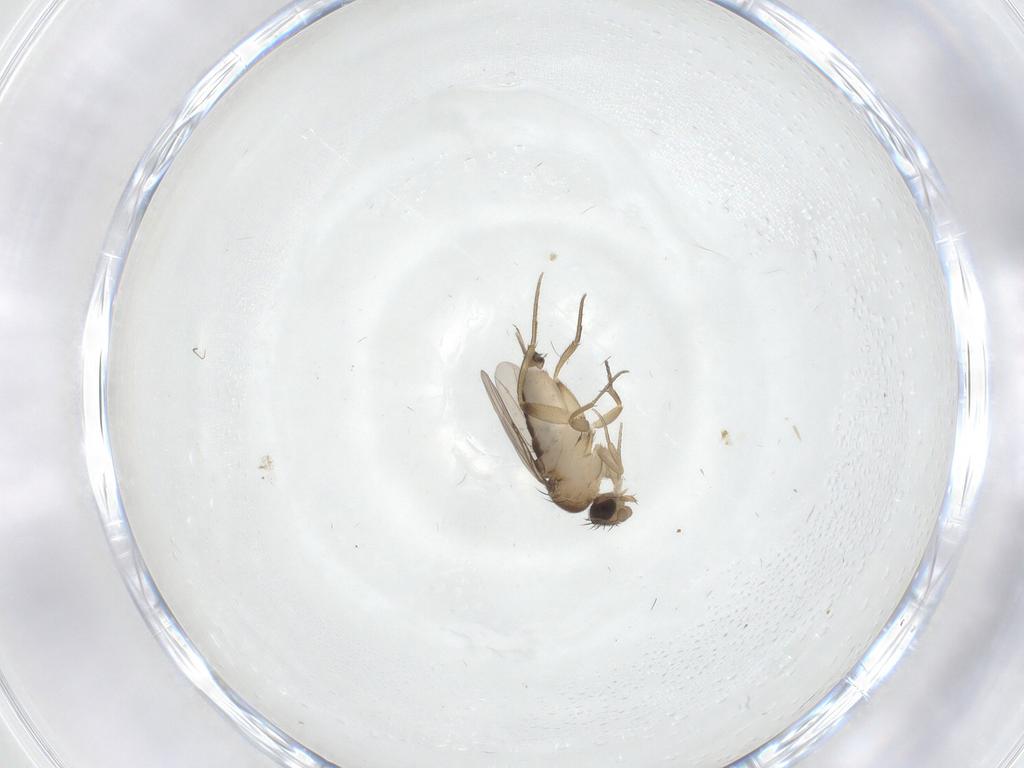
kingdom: Animalia
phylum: Arthropoda
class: Insecta
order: Diptera
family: Phoridae
